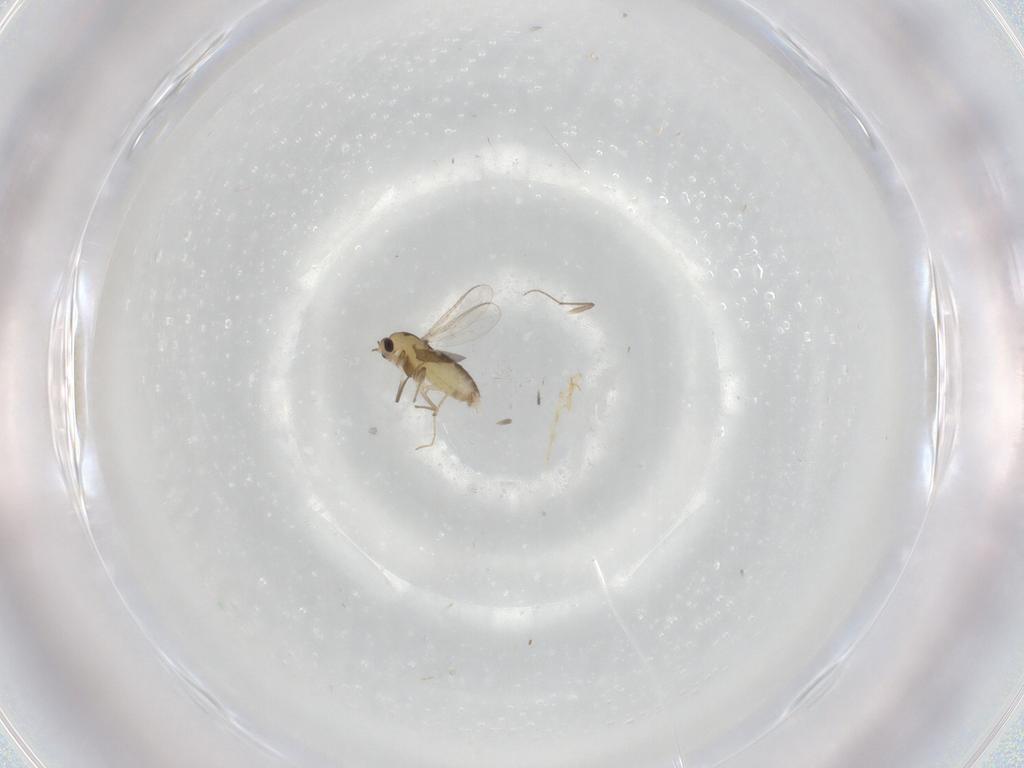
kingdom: Animalia
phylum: Arthropoda
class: Insecta
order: Diptera
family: Chironomidae
